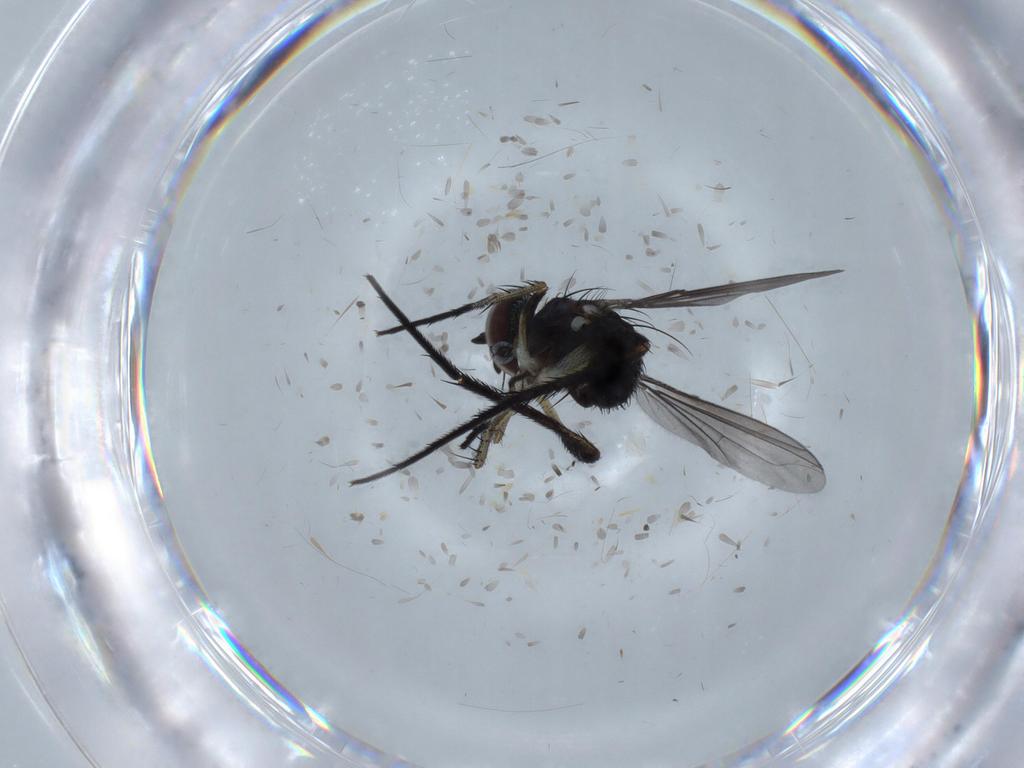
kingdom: Animalia
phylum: Arthropoda
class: Insecta
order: Diptera
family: Dolichopodidae
